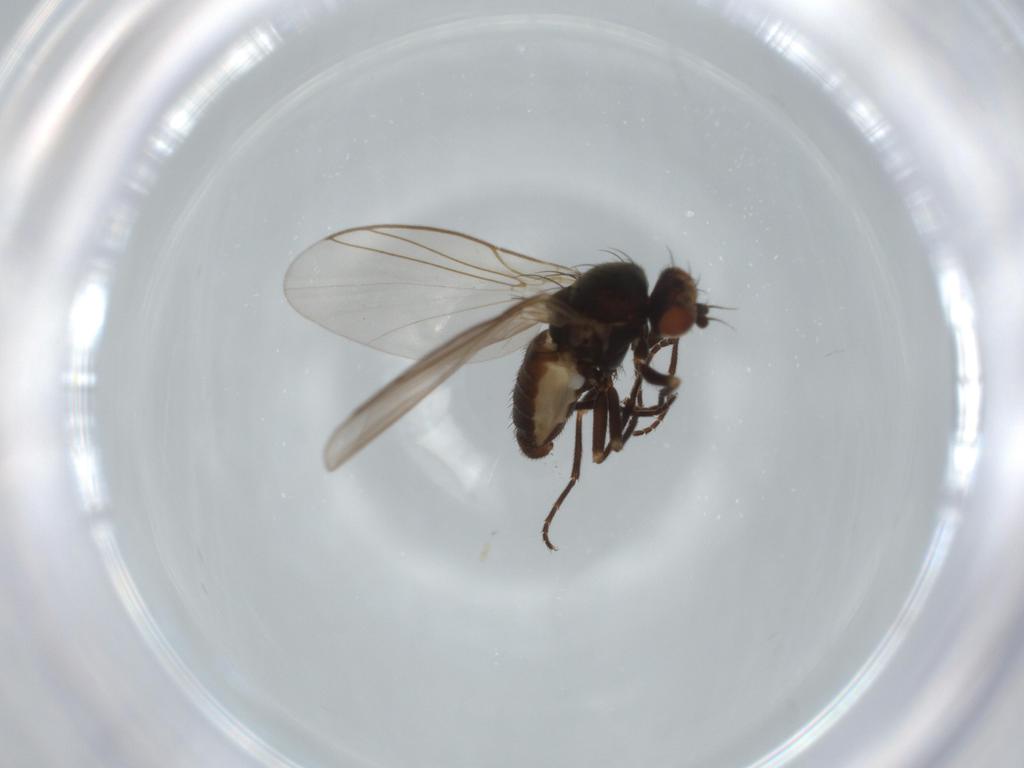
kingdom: Animalia
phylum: Arthropoda
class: Insecta
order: Diptera
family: Agromyzidae
